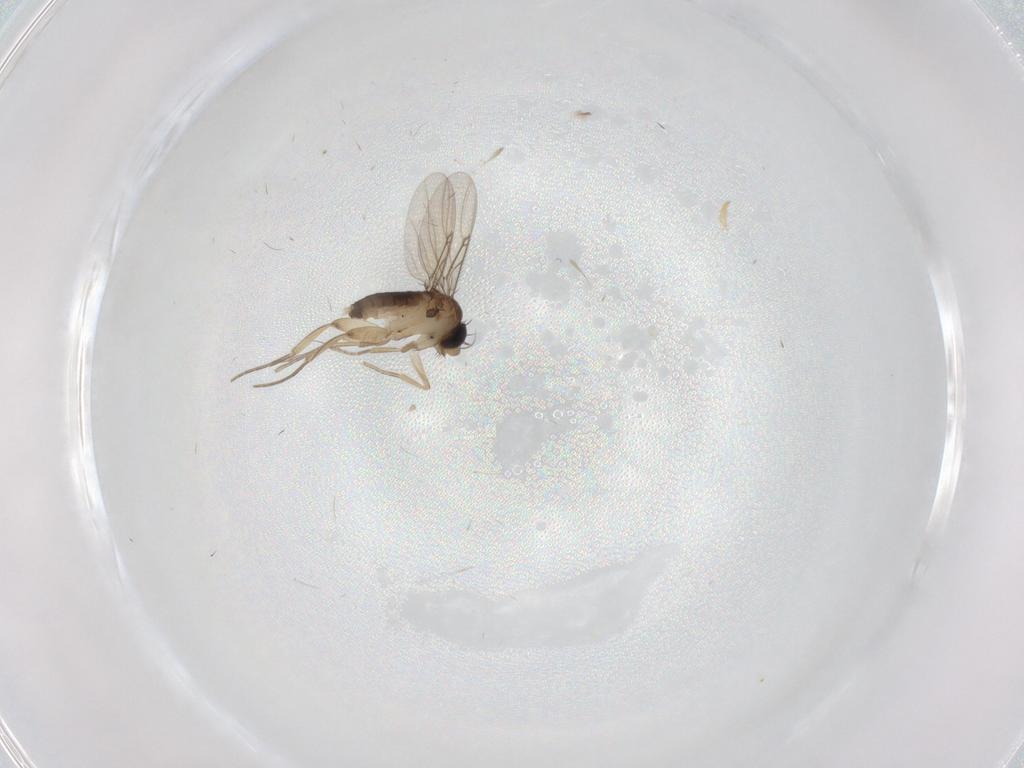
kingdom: Animalia
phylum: Arthropoda
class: Insecta
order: Diptera
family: Phoridae
